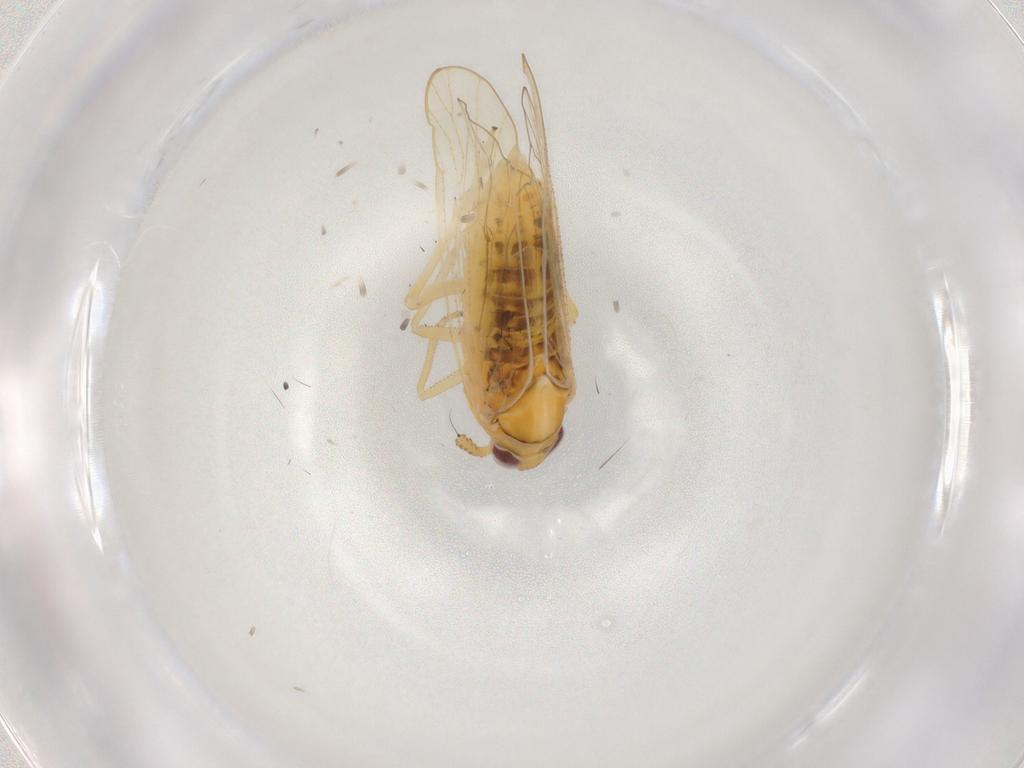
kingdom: Animalia
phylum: Arthropoda
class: Insecta
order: Hemiptera
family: Delphacidae
